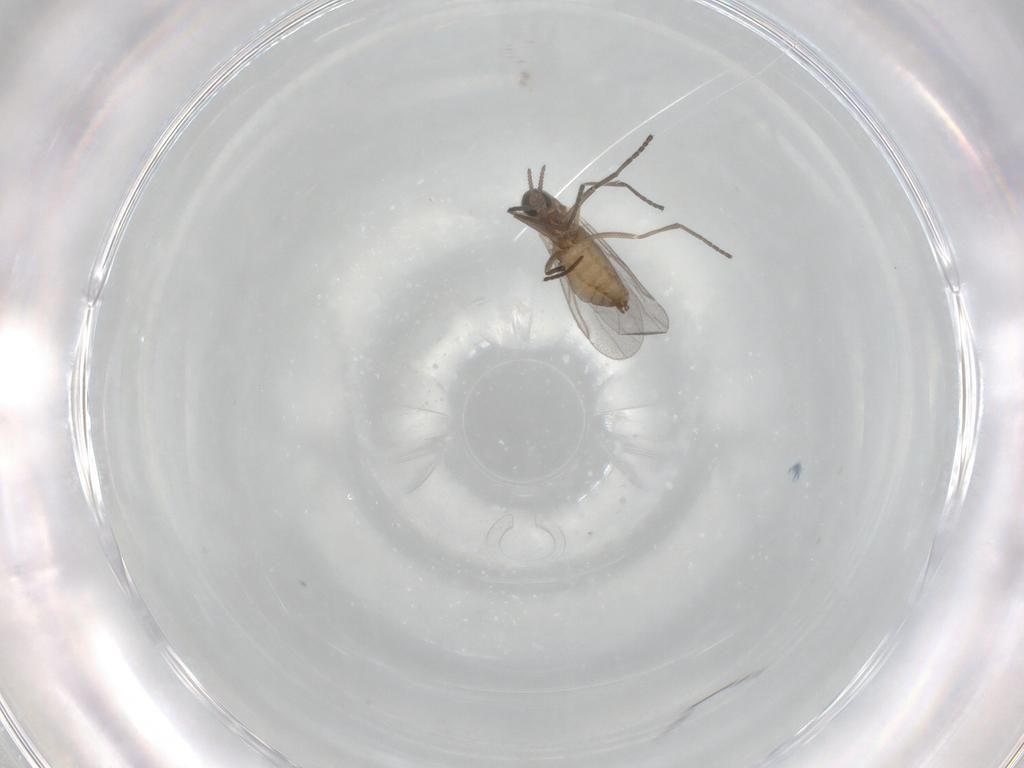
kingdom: Animalia
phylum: Arthropoda
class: Insecta
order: Diptera
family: Cecidomyiidae
